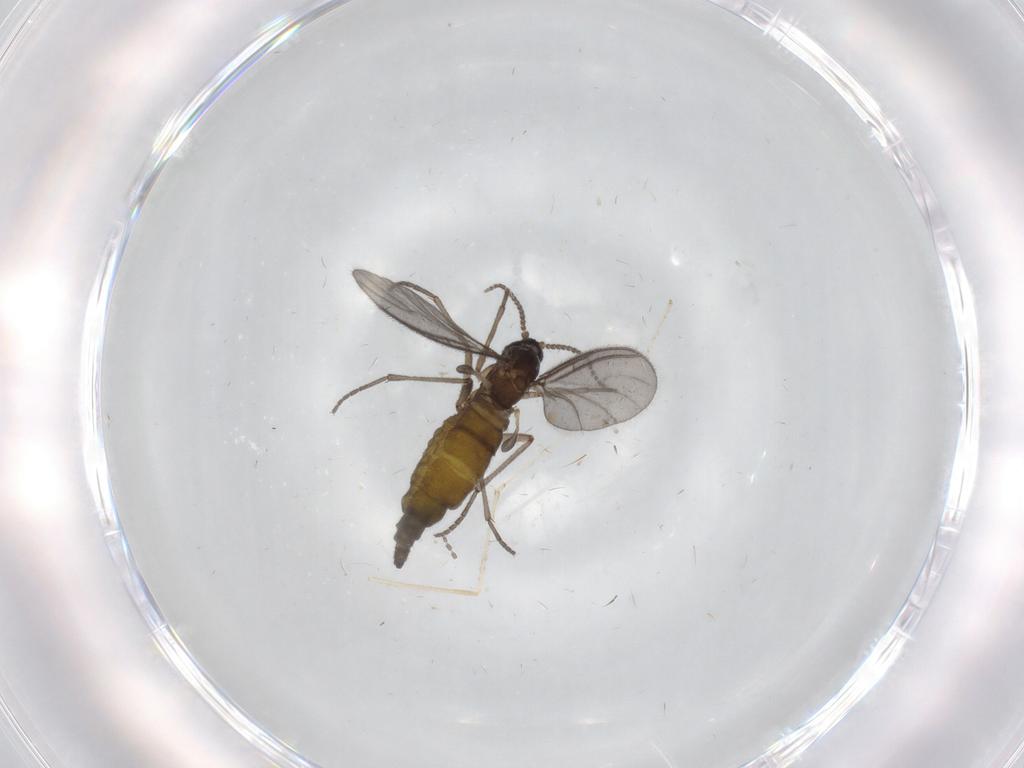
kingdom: Animalia
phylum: Arthropoda
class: Insecta
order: Diptera
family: Sciaridae
